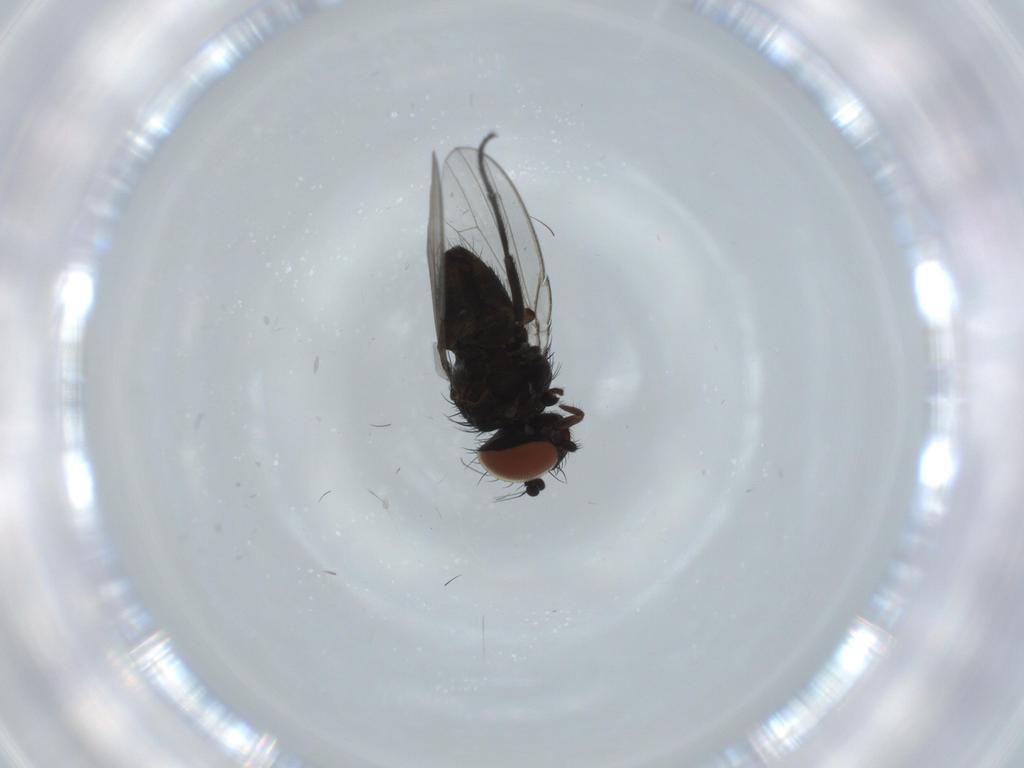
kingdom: Animalia
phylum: Arthropoda
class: Insecta
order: Diptera
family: Milichiidae
